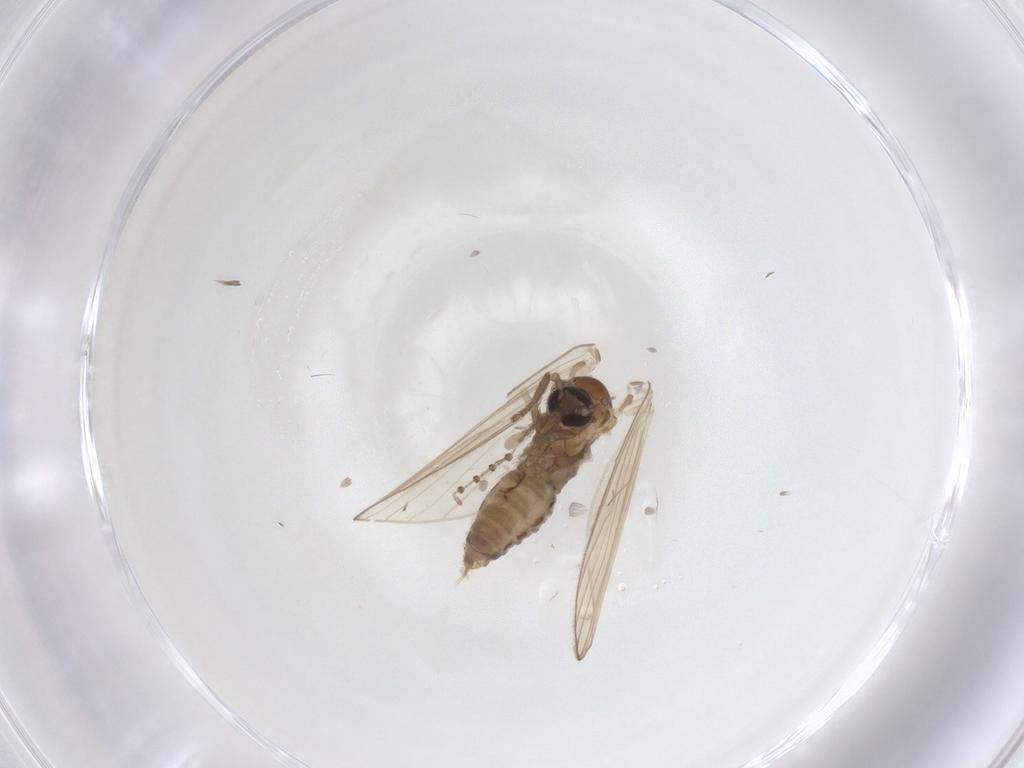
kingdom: Animalia
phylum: Arthropoda
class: Insecta
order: Diptera
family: Psychodidae
